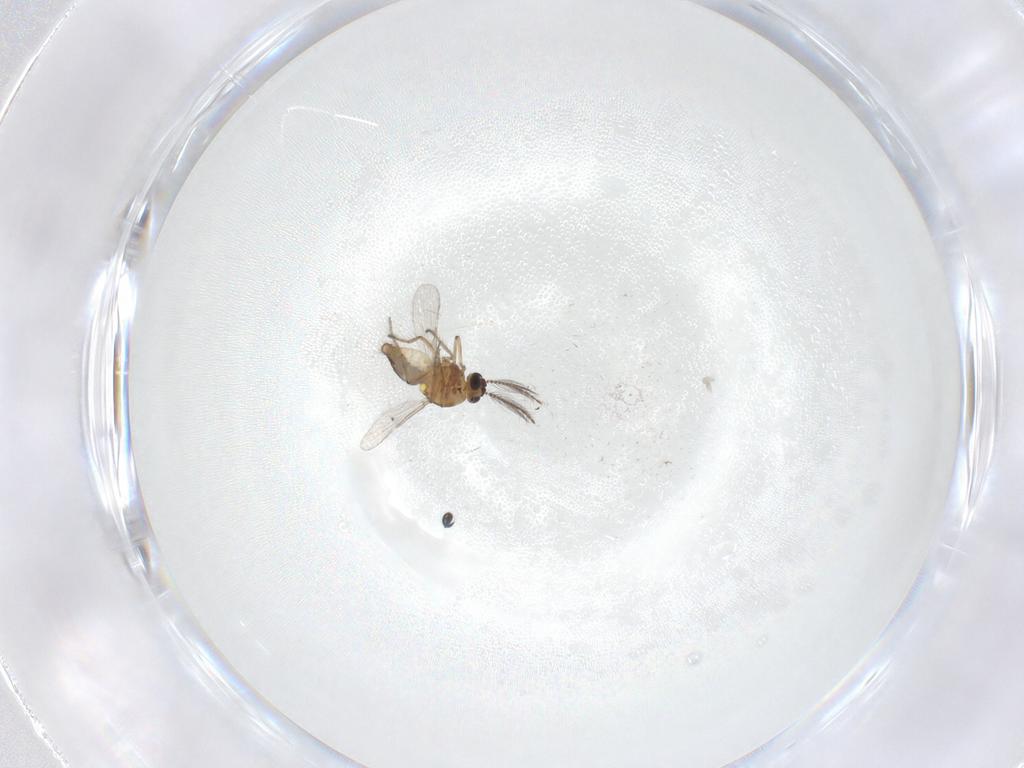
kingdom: Animalia
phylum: Arthropoda
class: Insecta
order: Diptera
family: Ceratopogonidae
